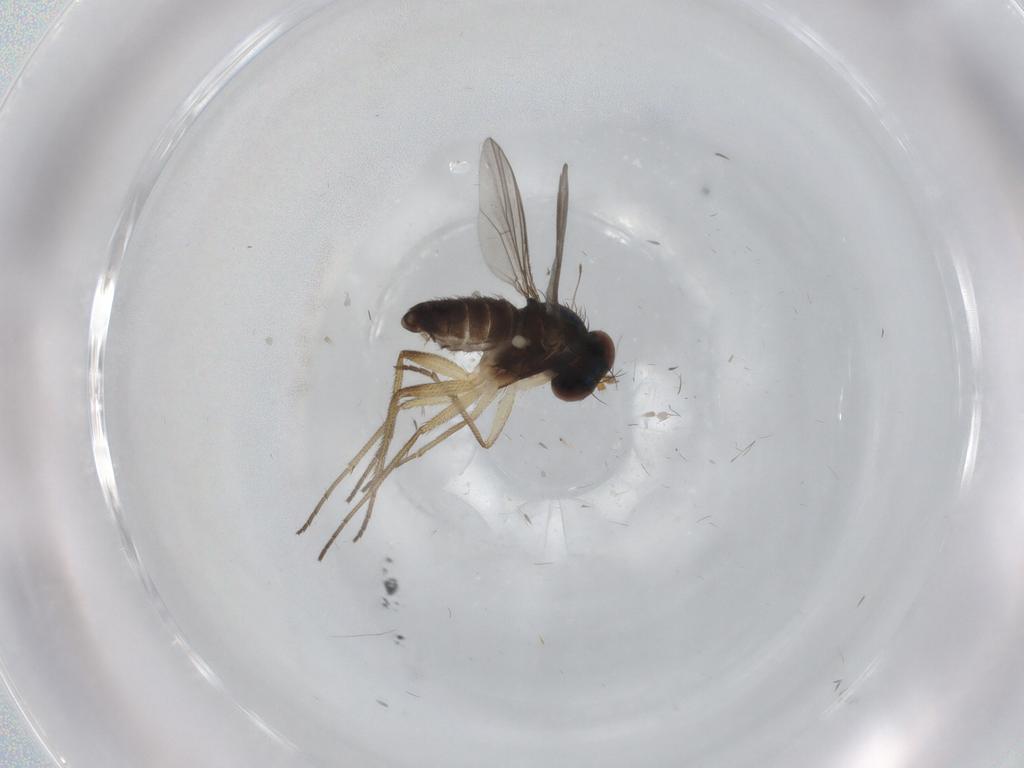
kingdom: Animalia
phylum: Arthropoda
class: Insecta
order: Diptera
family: Dolichopodidae
